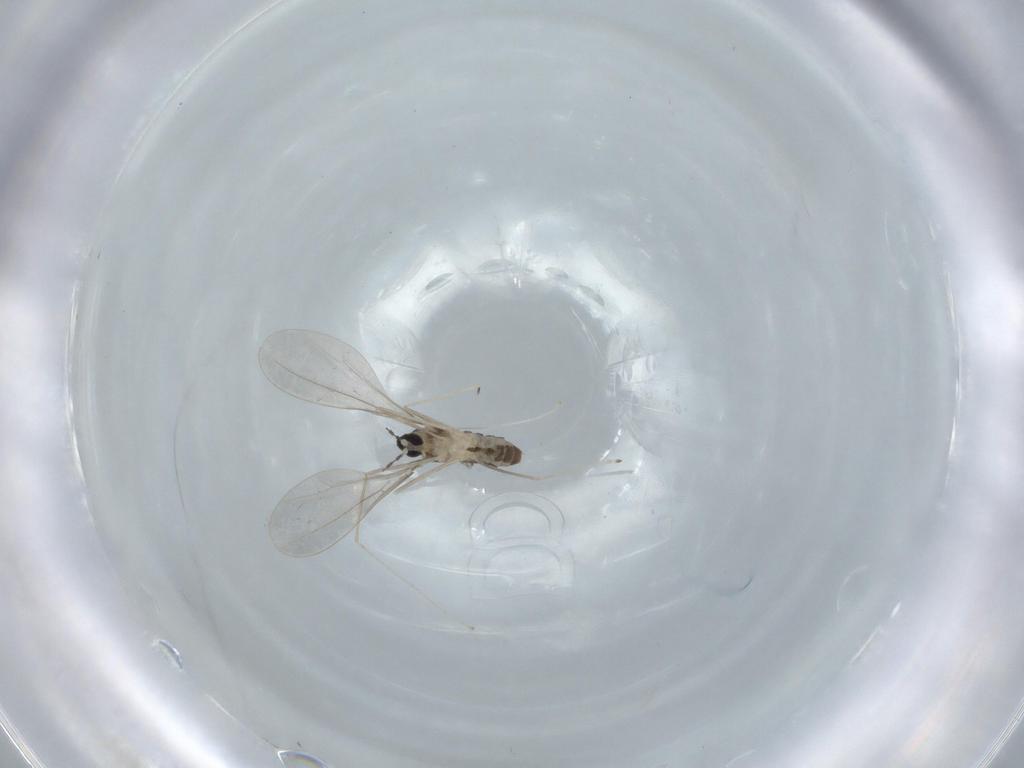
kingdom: Animalia
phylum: Arthropoda
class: Insecta
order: Diptera
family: Sciaridae
